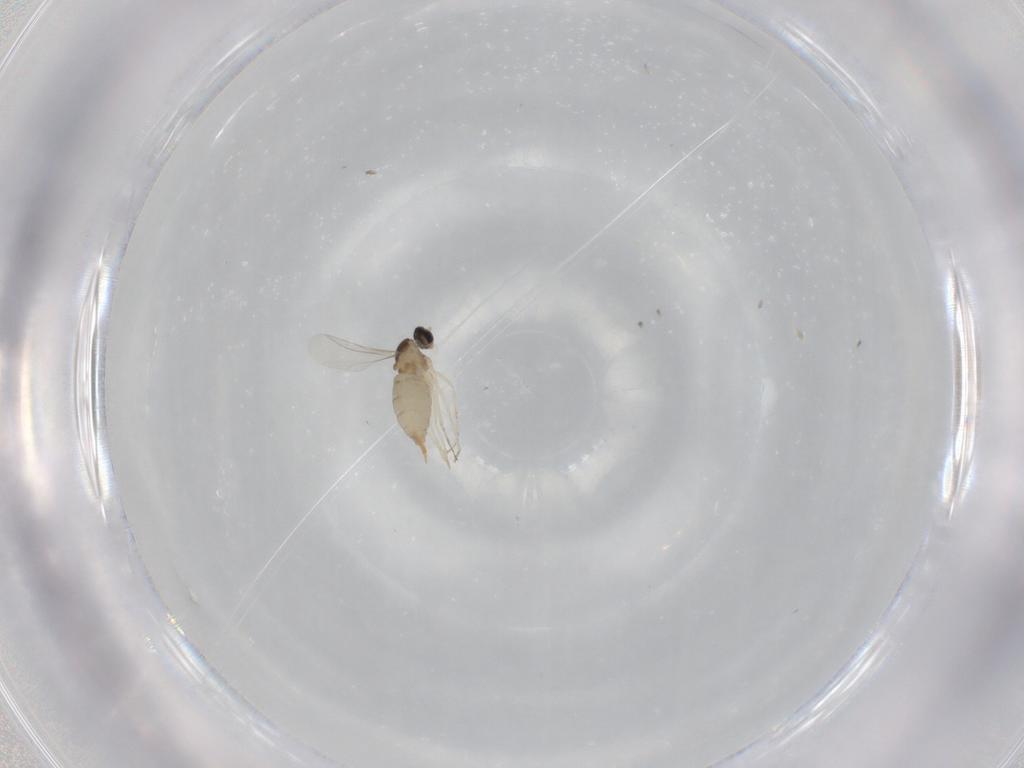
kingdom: Animalia
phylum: Arthropoda
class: Insecta
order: Diptera
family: Cecidomyiidae
